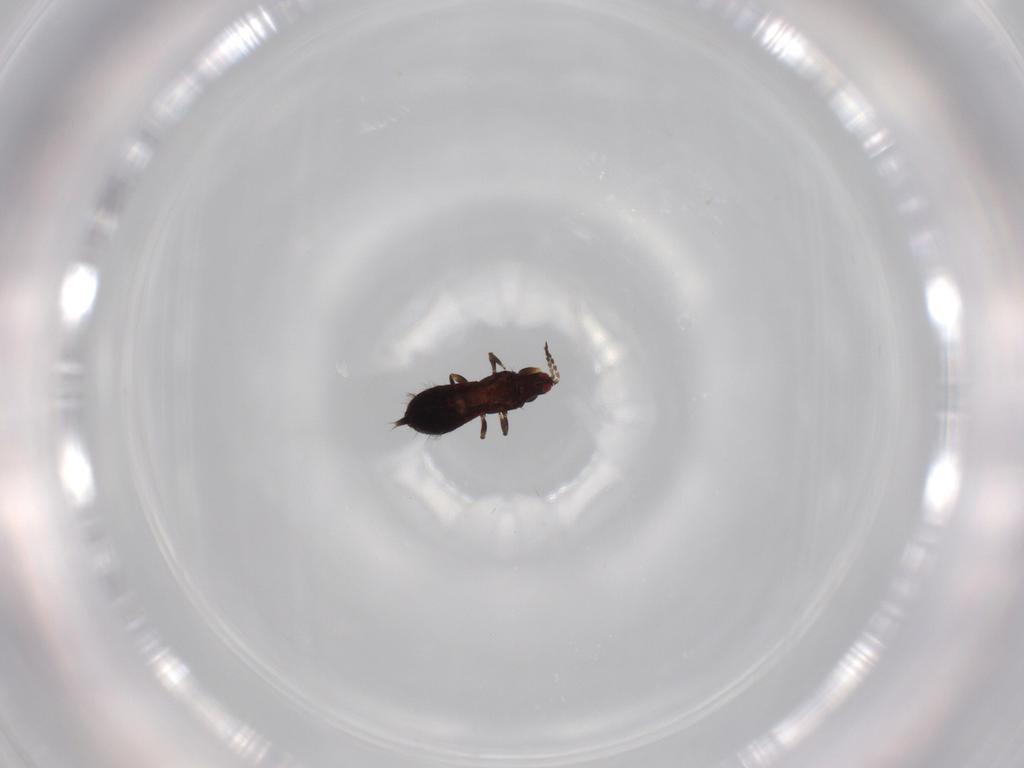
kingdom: Animalia
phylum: Arthropoda
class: Insecta
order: Thysanoptera
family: Phlaeothripidae
